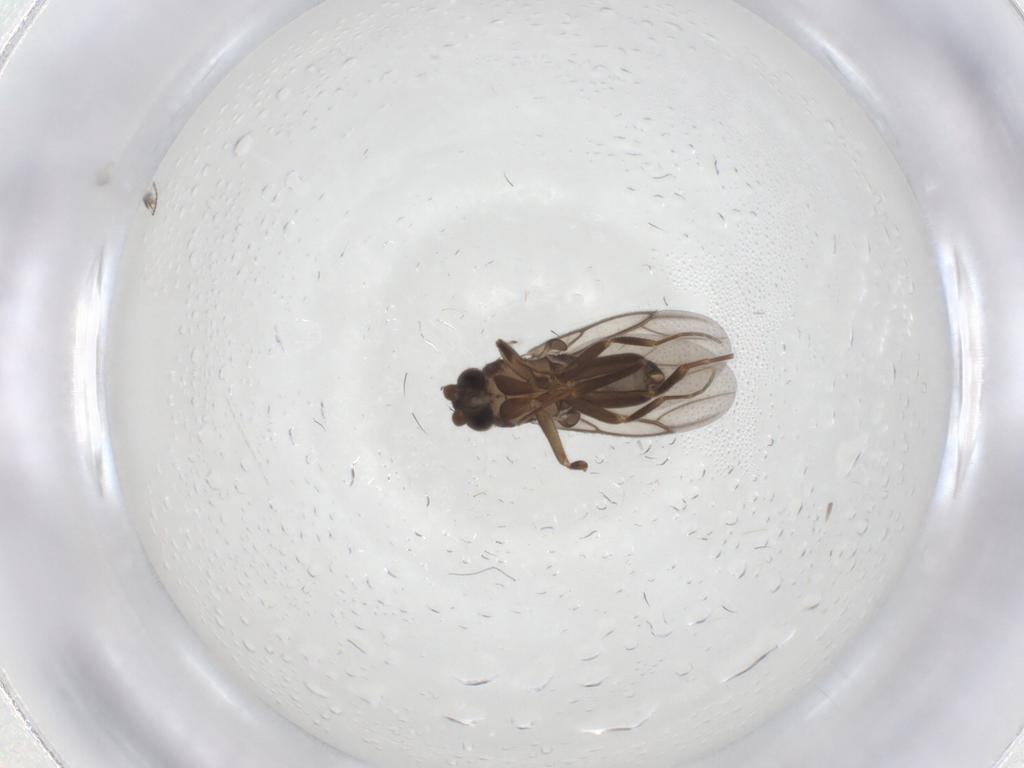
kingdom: Animalia
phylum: Arthropoda
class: Insecta
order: Diptera
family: Ceratopogonidae
